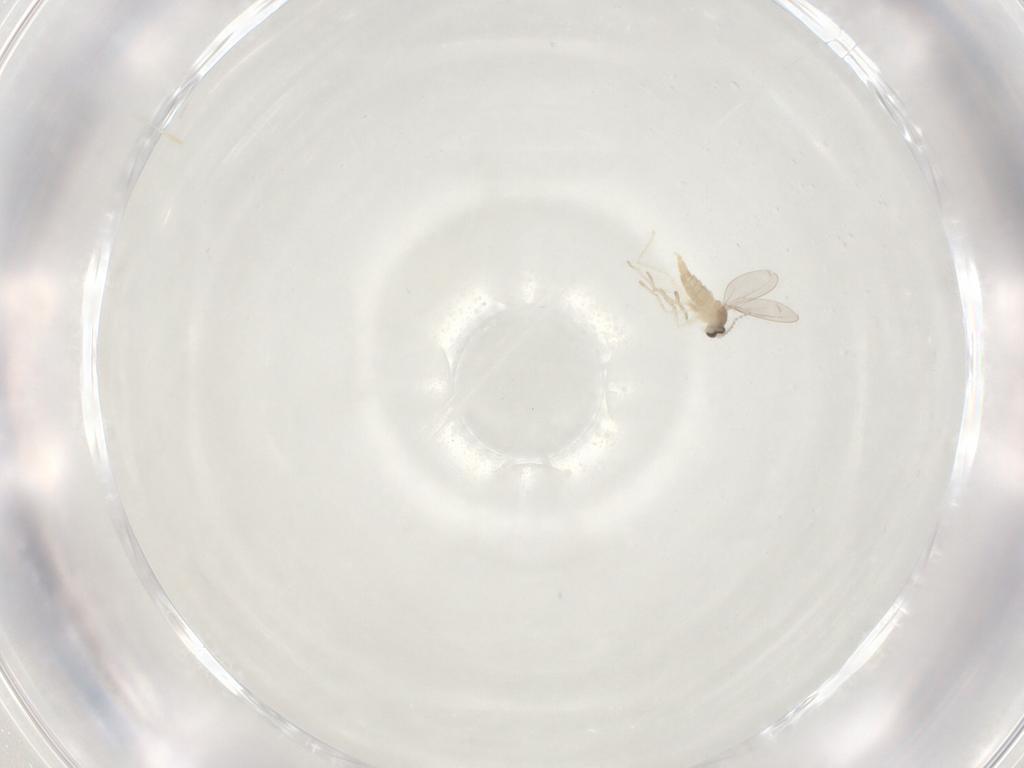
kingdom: Animalia
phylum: Arthropoda
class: Insecta
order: Diptera
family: Cecidomyiidae
